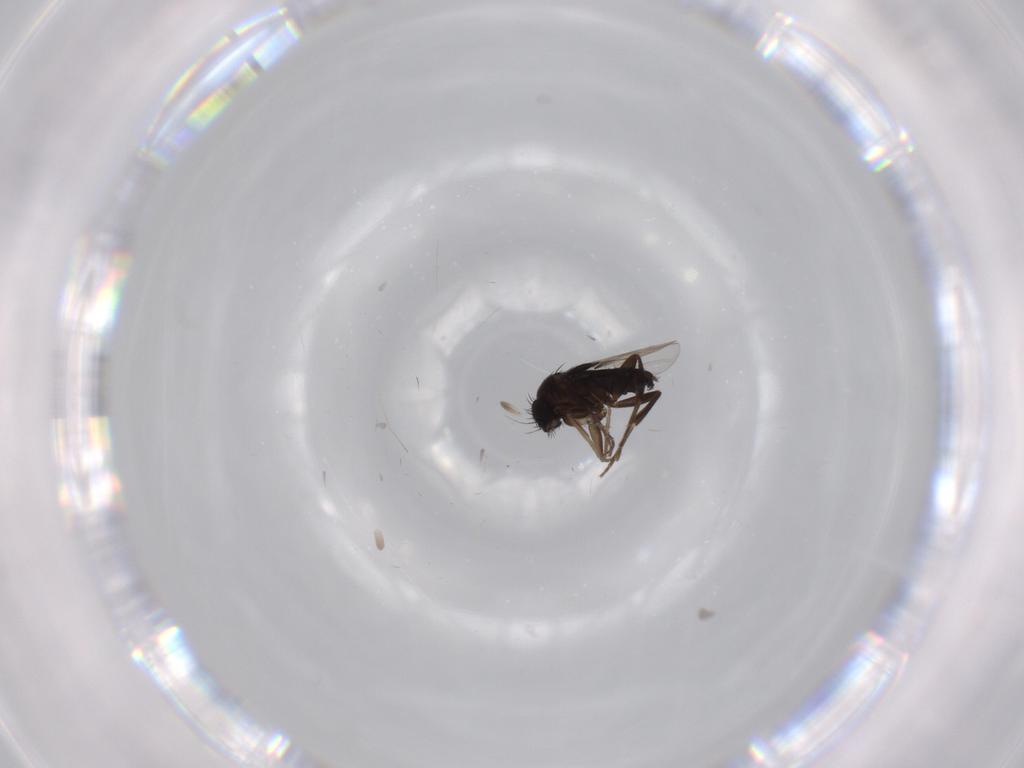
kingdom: Animalia
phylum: Arthropoda
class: Insecta
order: Diptera
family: Phoridae
